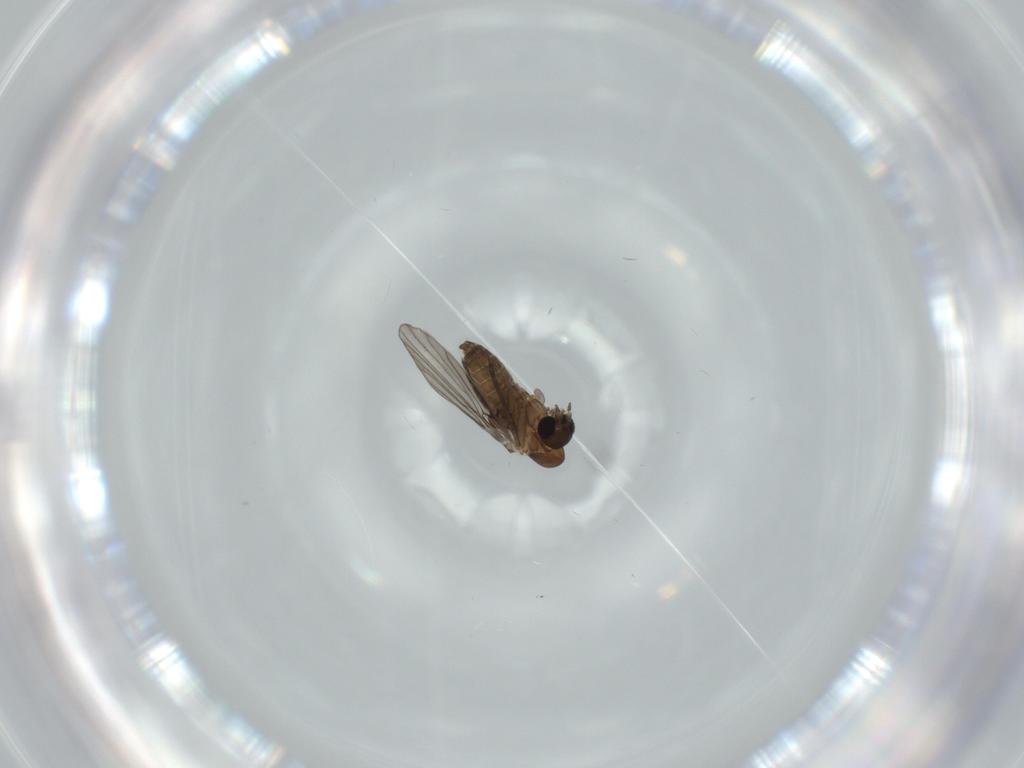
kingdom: Animalia
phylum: Arthropoda
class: Insecta
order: Diptera
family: Psychodidae
